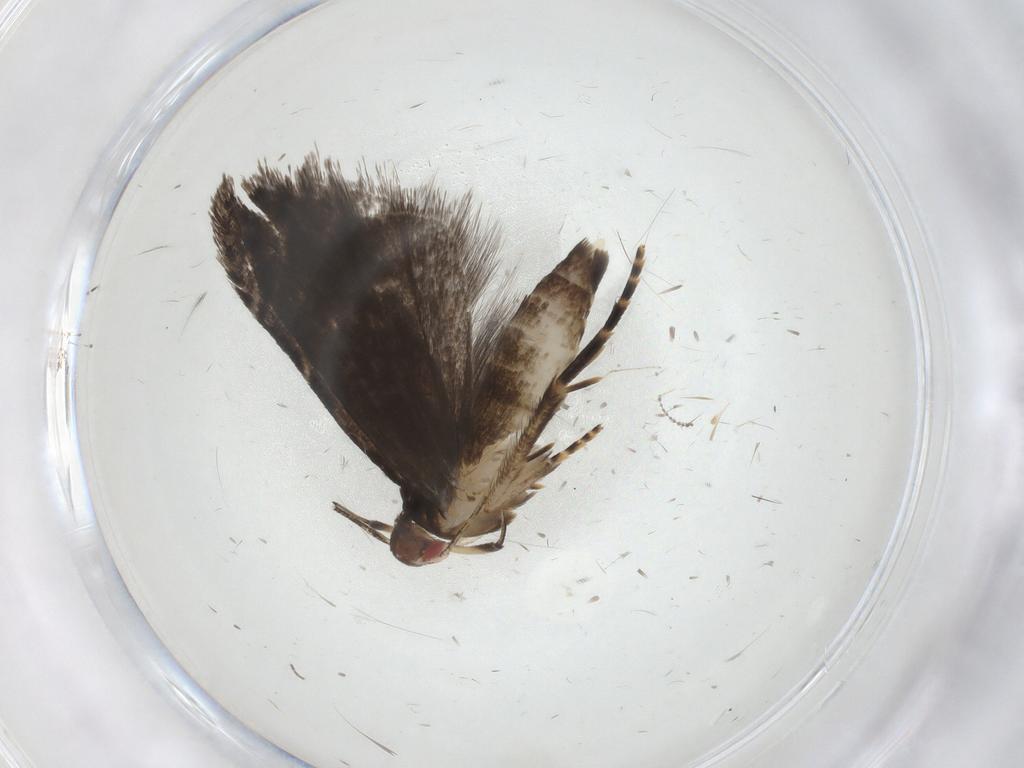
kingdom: Animalia
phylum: Arthropoda
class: Insecta
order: Lepidoptera
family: Gelechiidae
